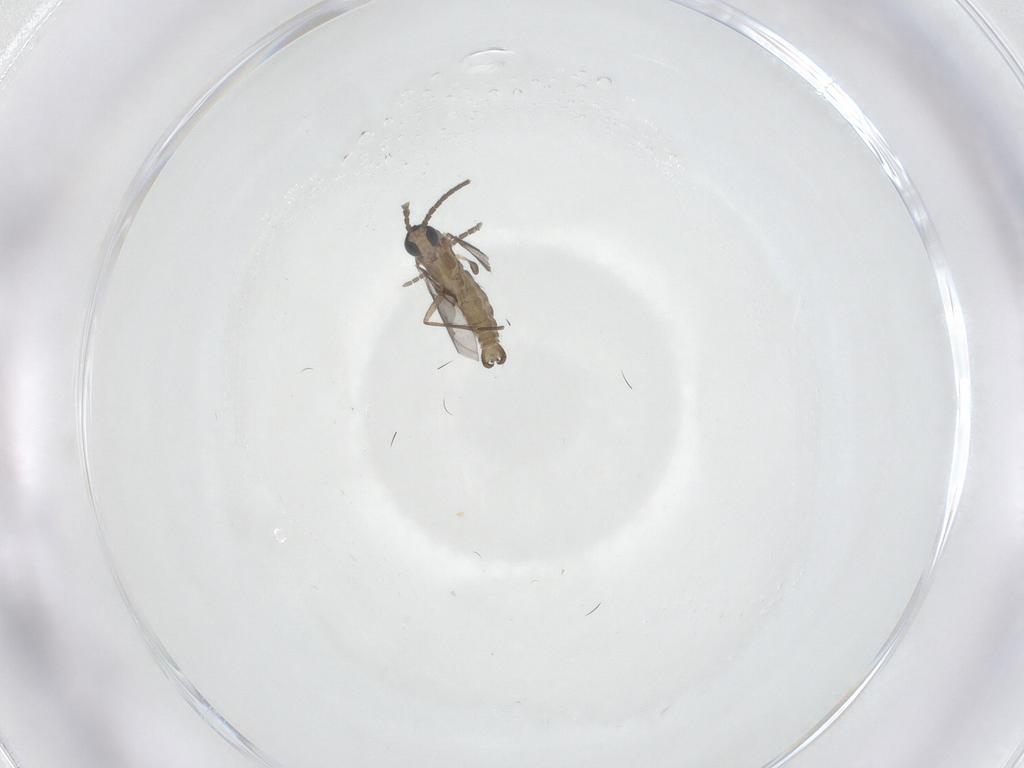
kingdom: Animalia
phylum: Arthropoda
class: Insecta
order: Diptera
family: Sciaridae
